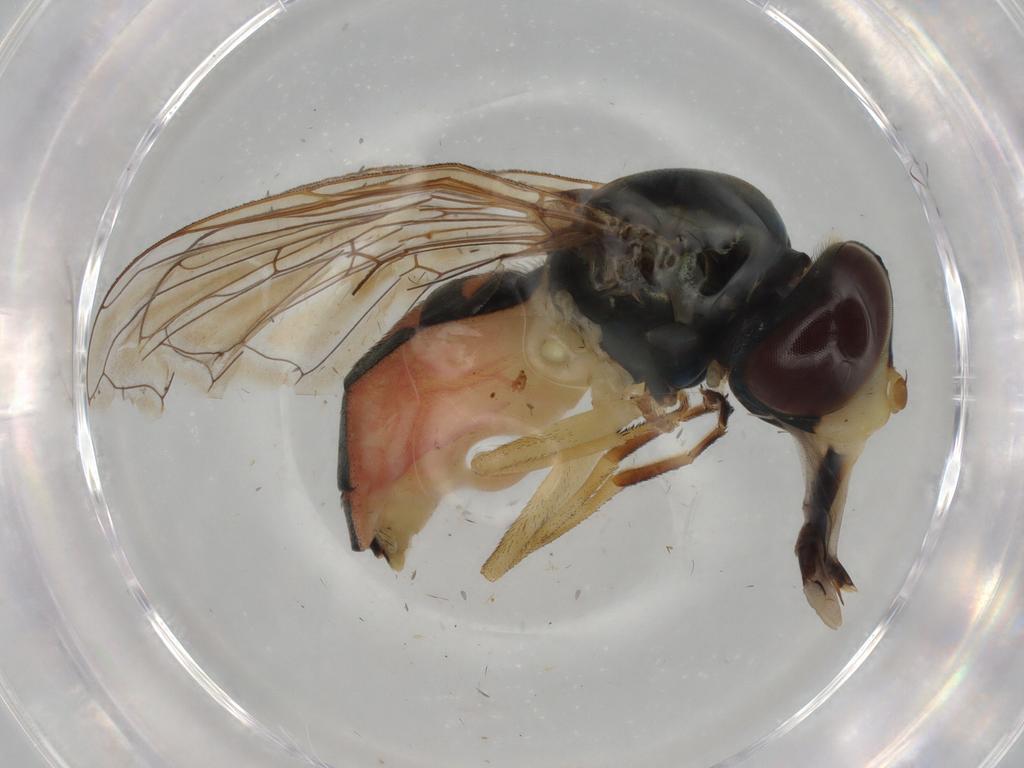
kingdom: Animalia
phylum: Arthropoda
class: Insecta
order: Diptera
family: Syrphidae
